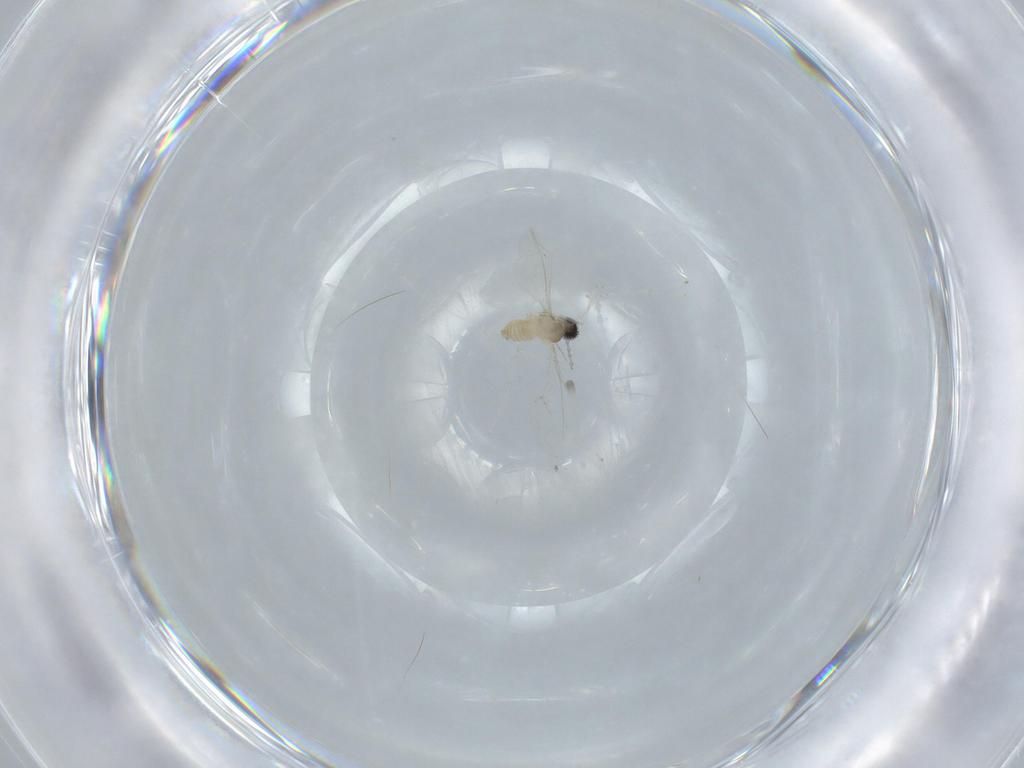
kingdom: Animalia
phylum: Arthropoda
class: Insecta
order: Diptera
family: Cecidomyiidae
